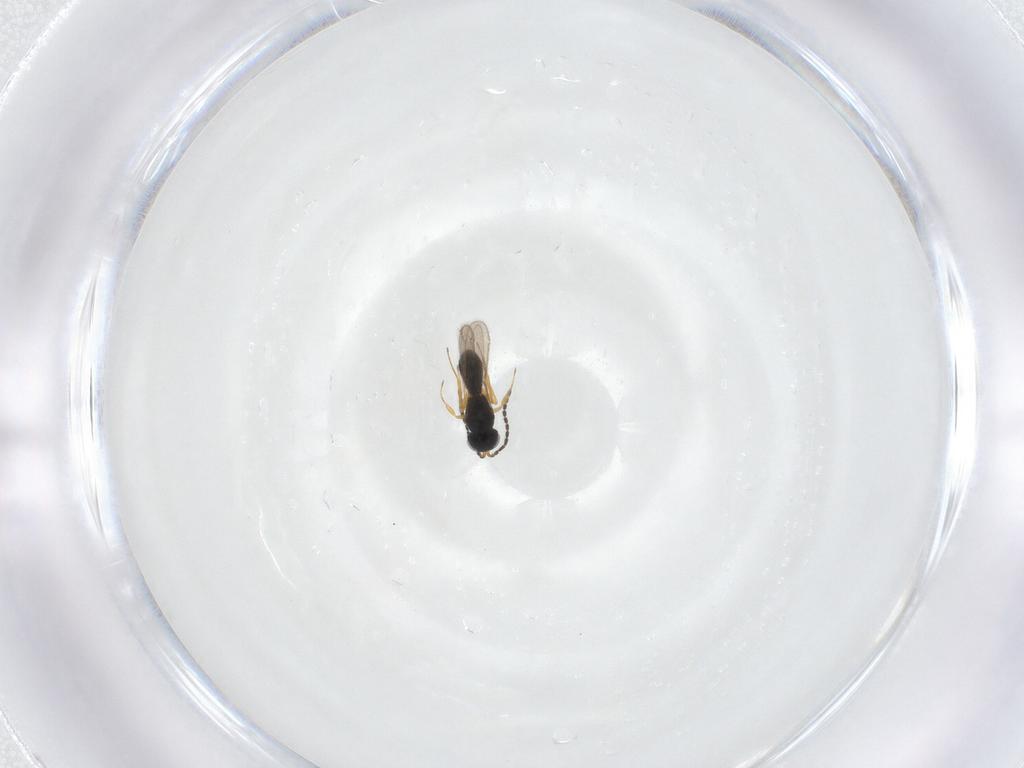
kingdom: Animalia
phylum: Arthropoda
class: Insecta
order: Hymenoptera
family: Scelionidae
